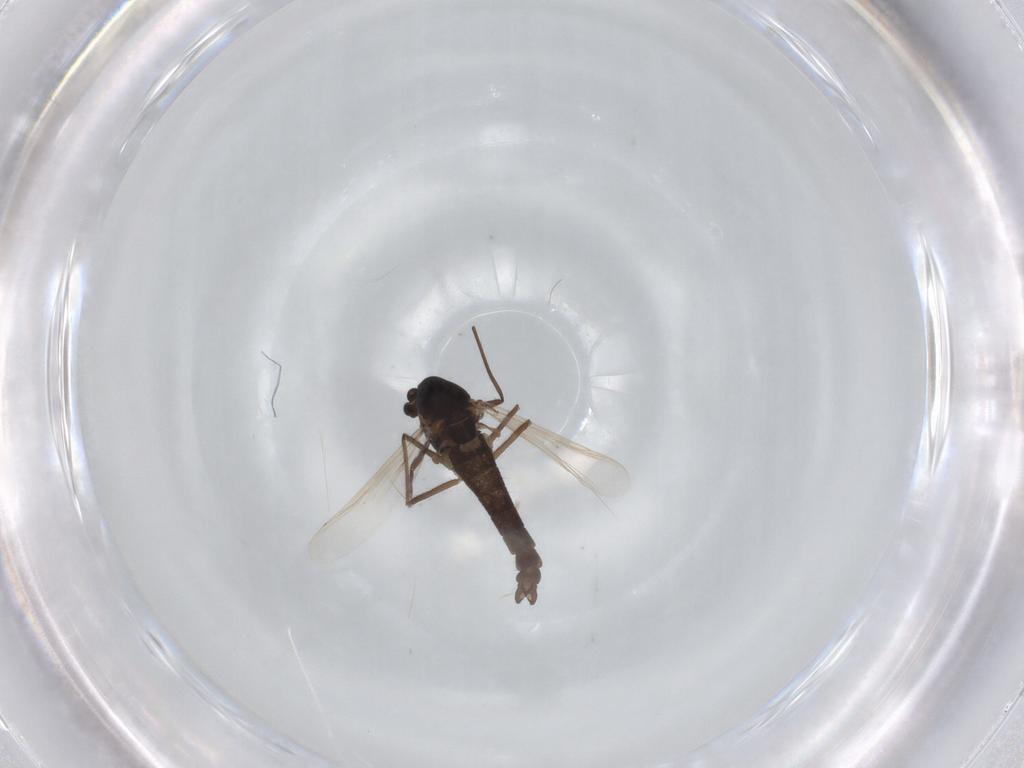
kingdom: Animalia
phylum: Arthropoda
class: Insecta
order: Diptera
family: Chironomidae
